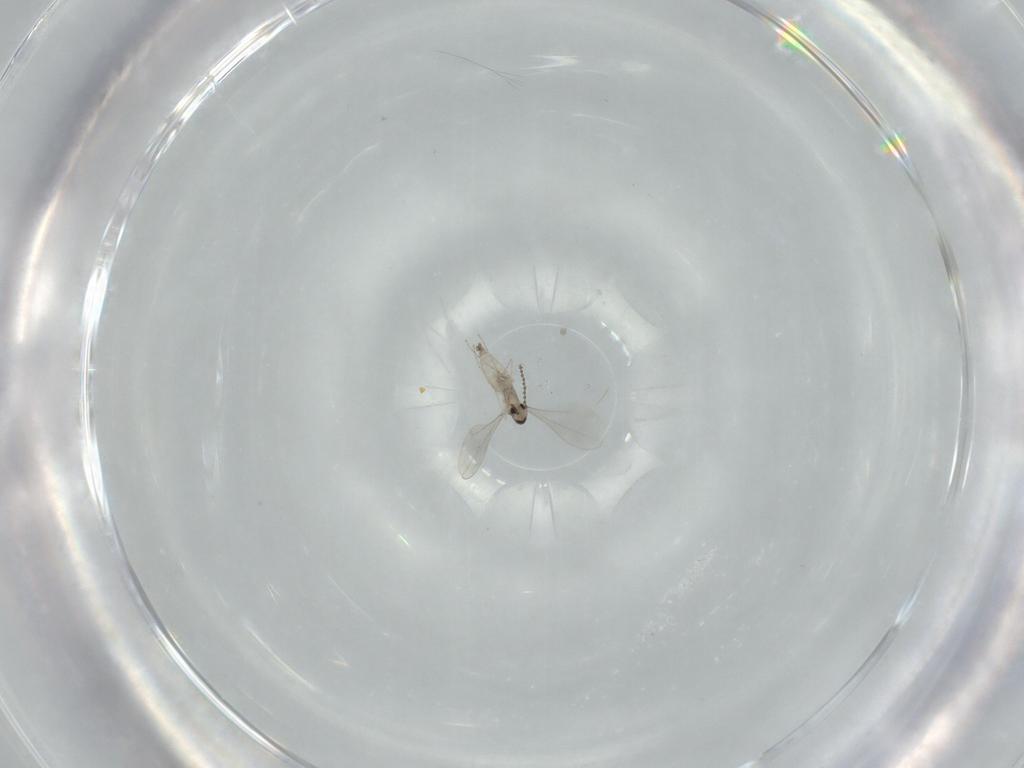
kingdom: Animalia
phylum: Arthropoda
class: Insecta
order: Diptera
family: Cecidomyiidae
